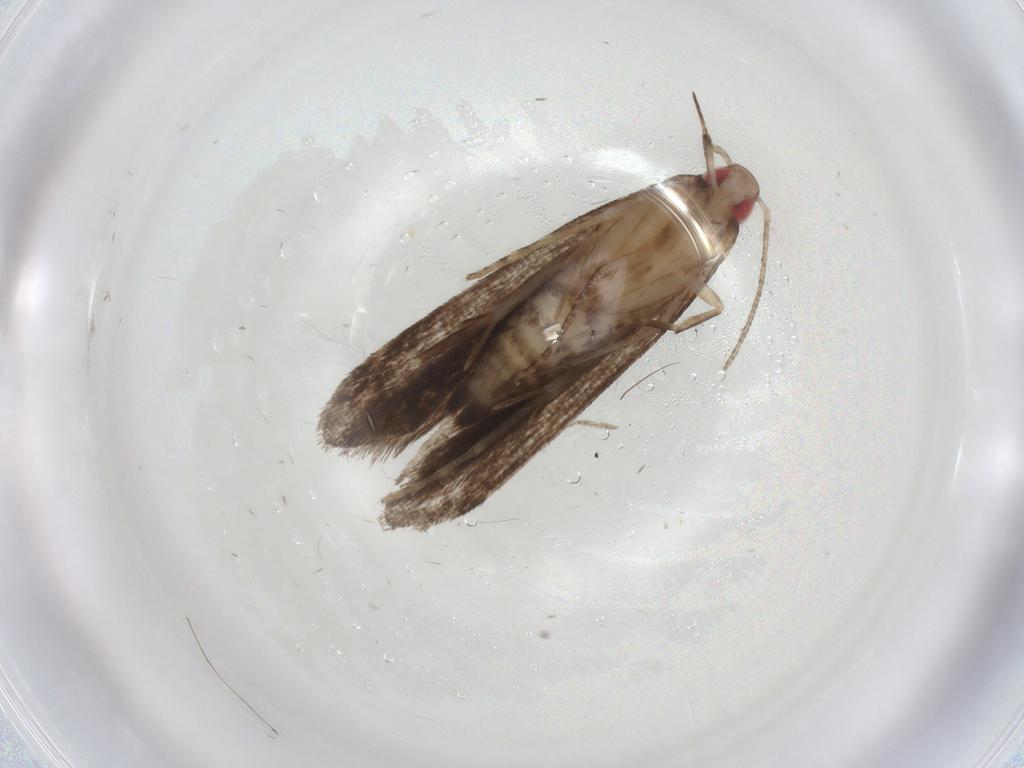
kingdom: Animalia
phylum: Arthropoda
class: Insecta
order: Lepidoptera
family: Gelechiidae
